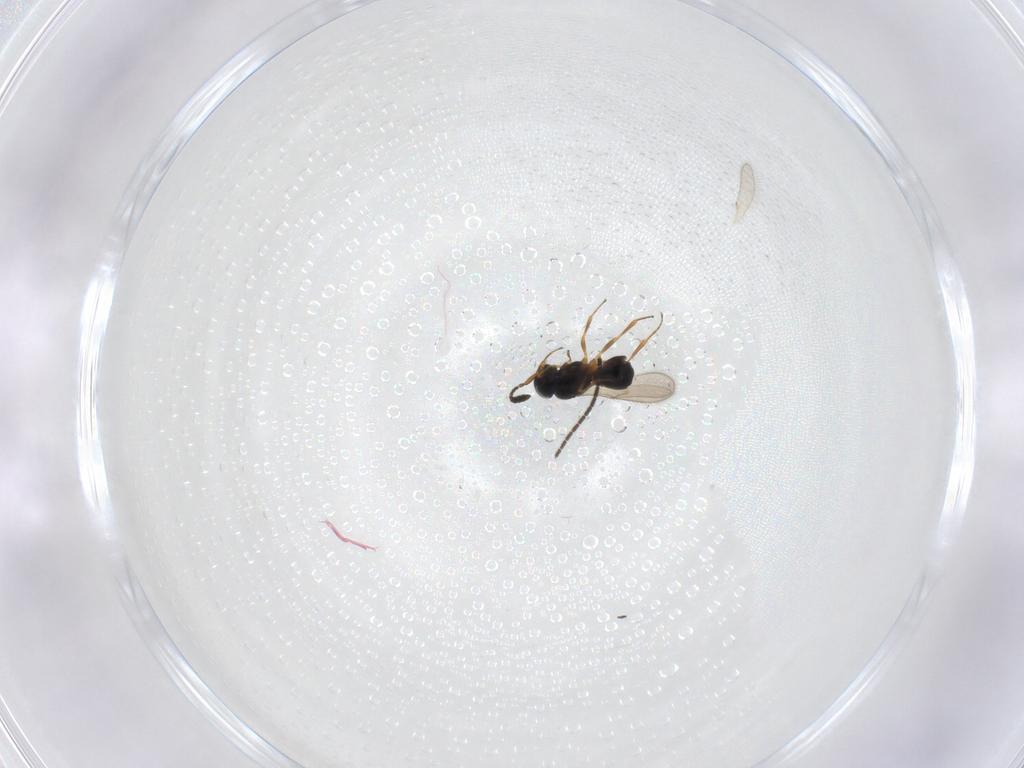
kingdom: Animalia
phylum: Arthropoda
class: Insecta
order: Hymenoptera
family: Scelionidae
